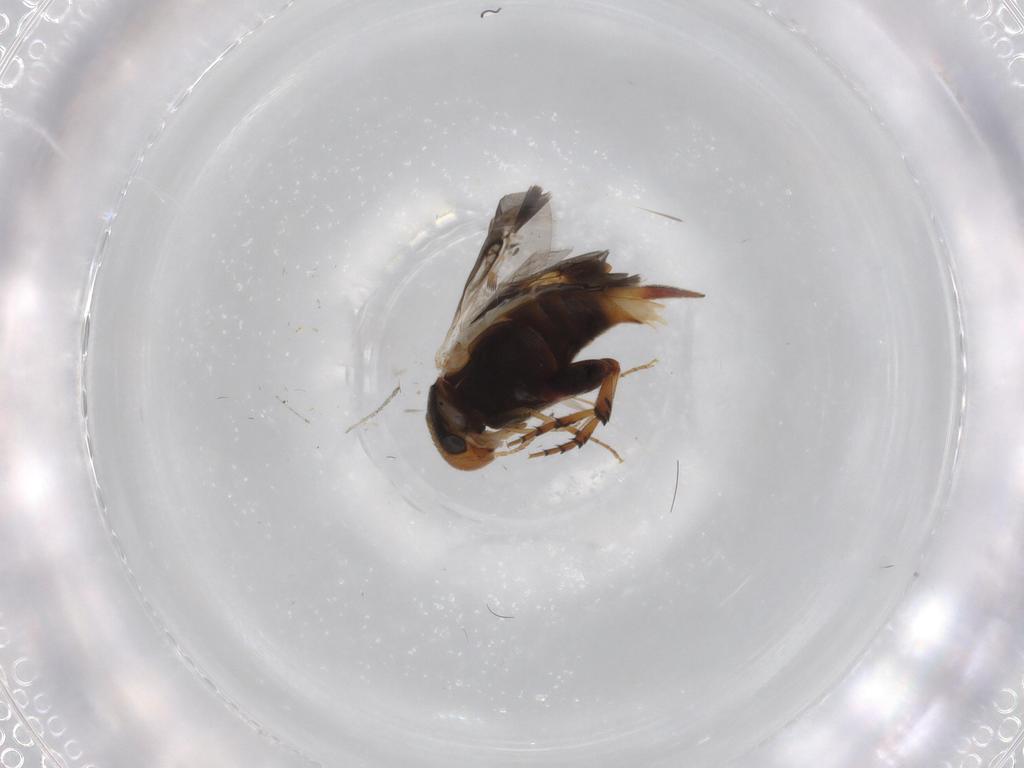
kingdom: Animalia
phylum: Arthropoda
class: Insecta
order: Coleoptera
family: Mordellidae
